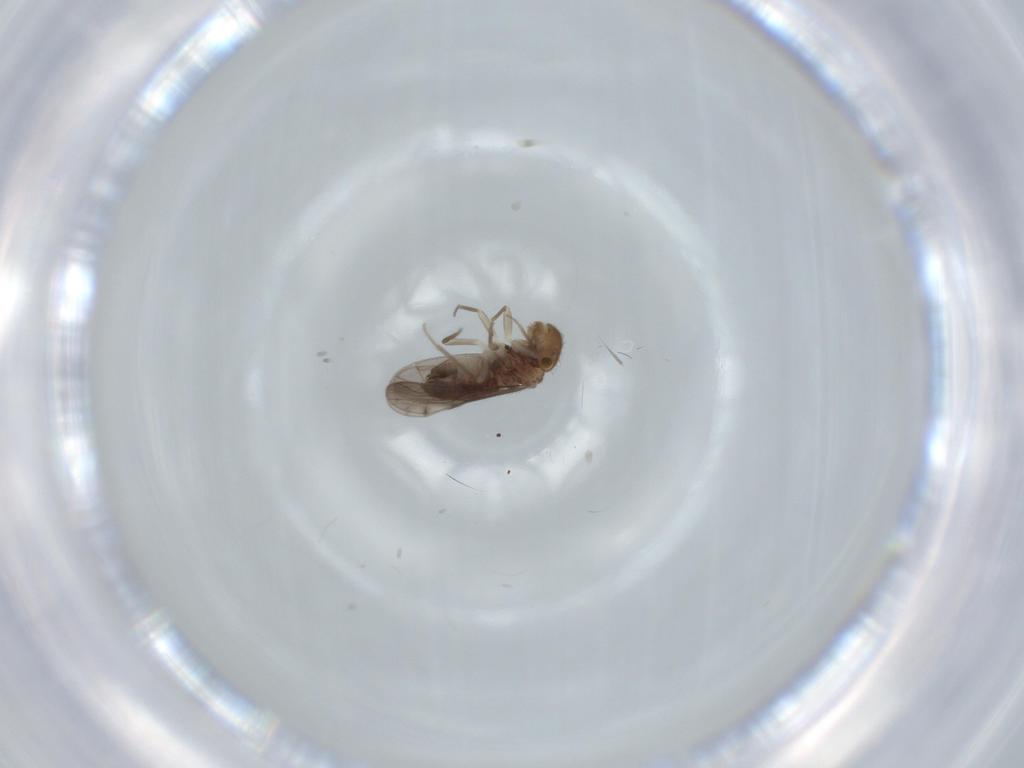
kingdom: Animalia
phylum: Arthropoda
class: Insecta
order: Psocodea
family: Ectopsocidae
